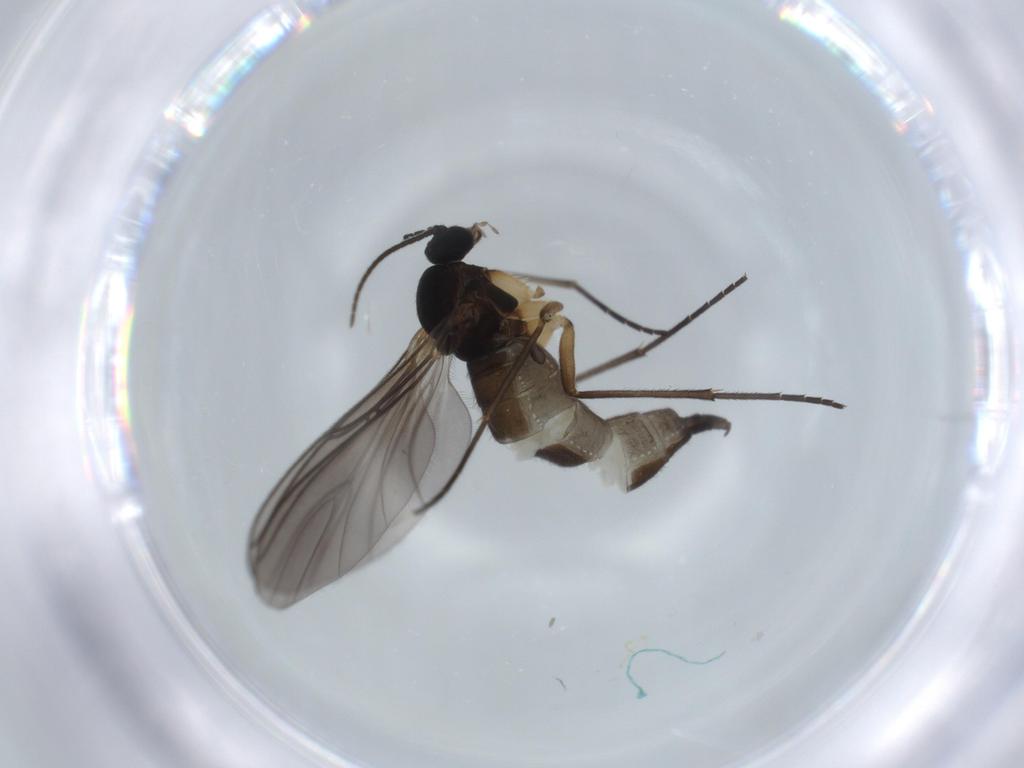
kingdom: Animalia
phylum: Arthropoda
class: Insecta
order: Diptera
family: Sciaridae
